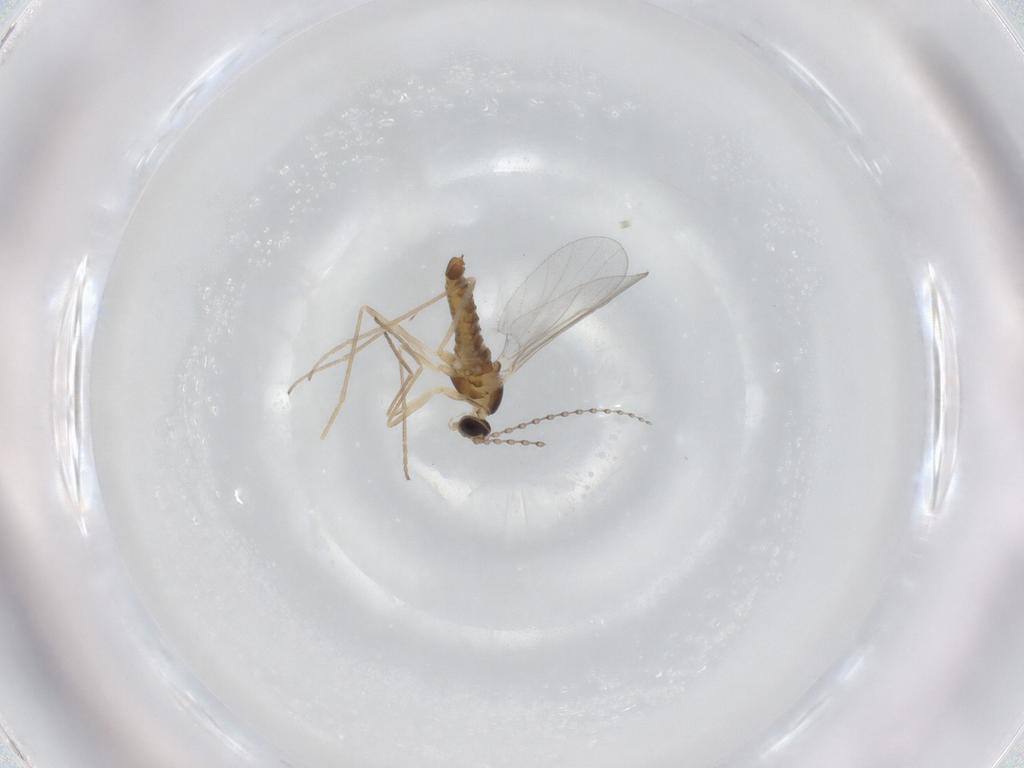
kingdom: Animalia
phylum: Arthropoda
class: Insecta
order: Diptera
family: Cecidomyiidae
